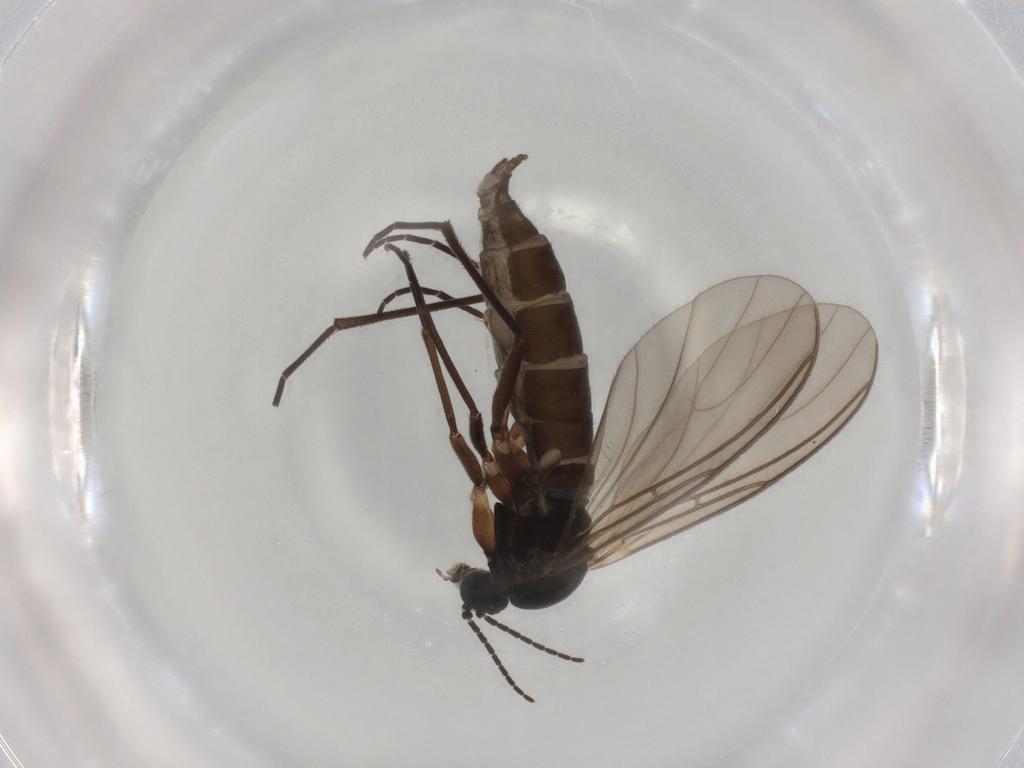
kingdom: Animalia
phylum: Arthropoda
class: Insecta
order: Diptera
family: Sciaridae
